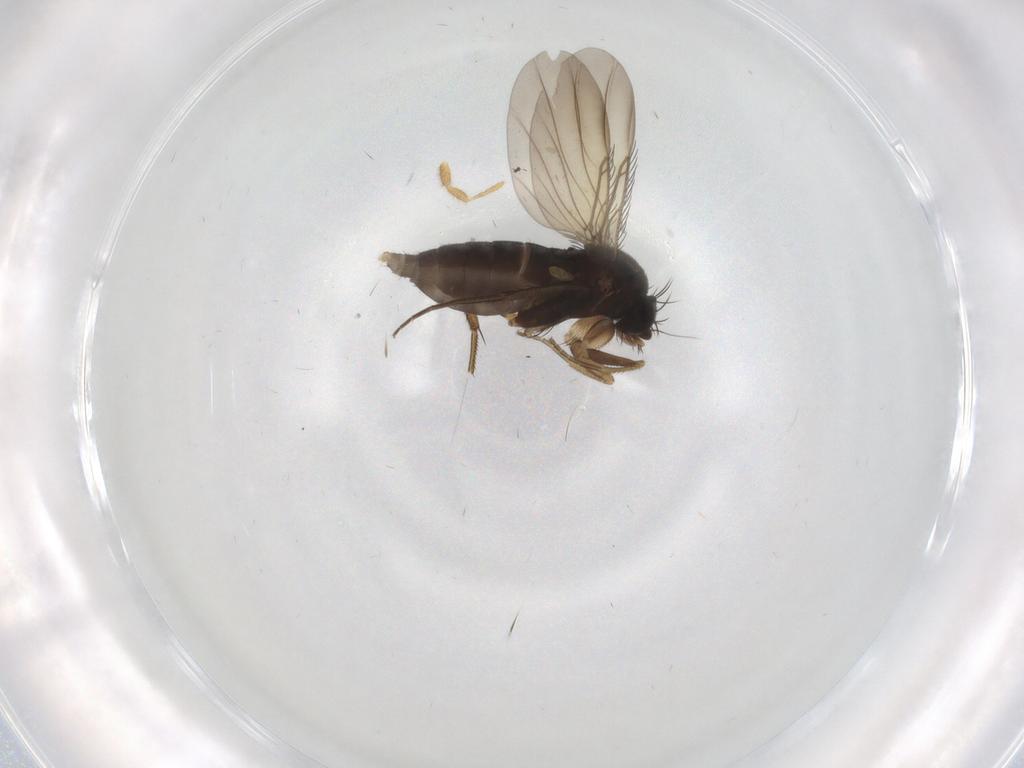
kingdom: Animalia
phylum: Arthropoda
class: Insecta
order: Diptera
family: Phoridae
